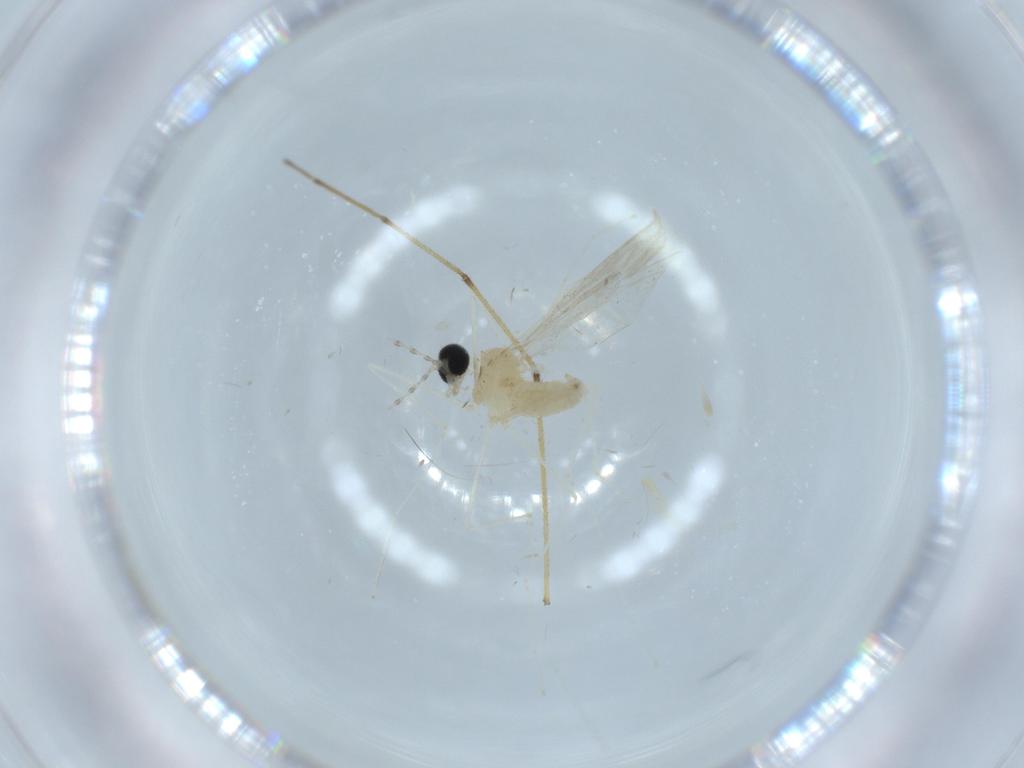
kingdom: Animalia
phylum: Arthropoda
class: Insecta
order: Diptera
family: Cecidomyiidae
